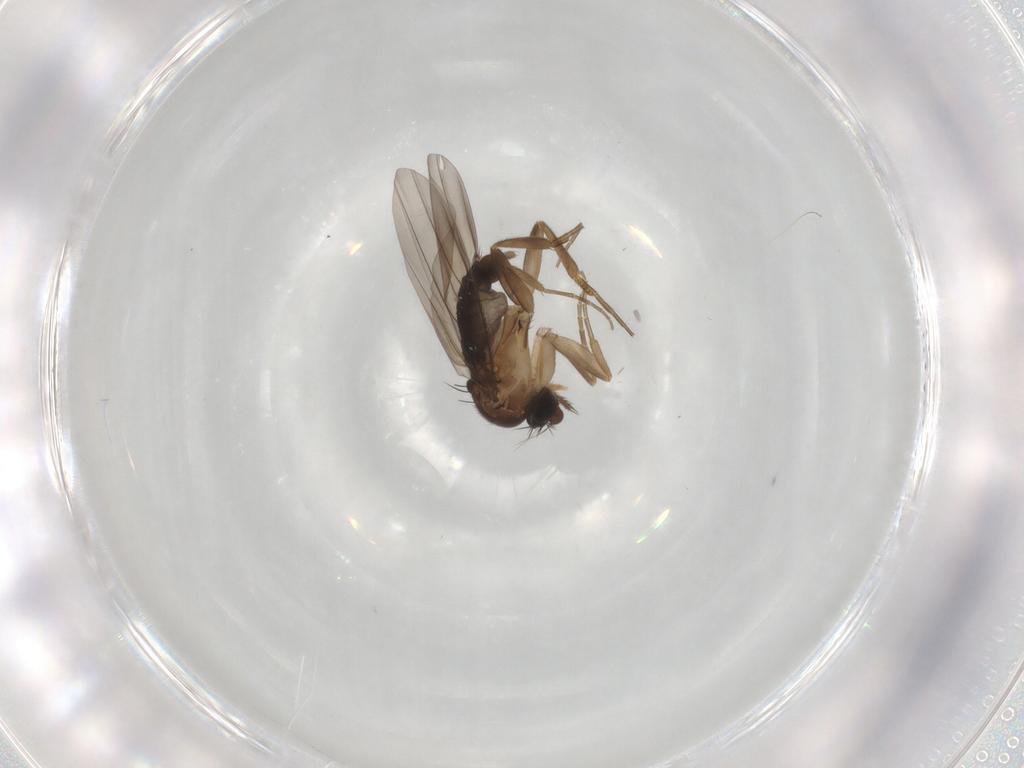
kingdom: Animalia
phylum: Arthropoda
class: Insecta
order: Diptera
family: Phoridae
